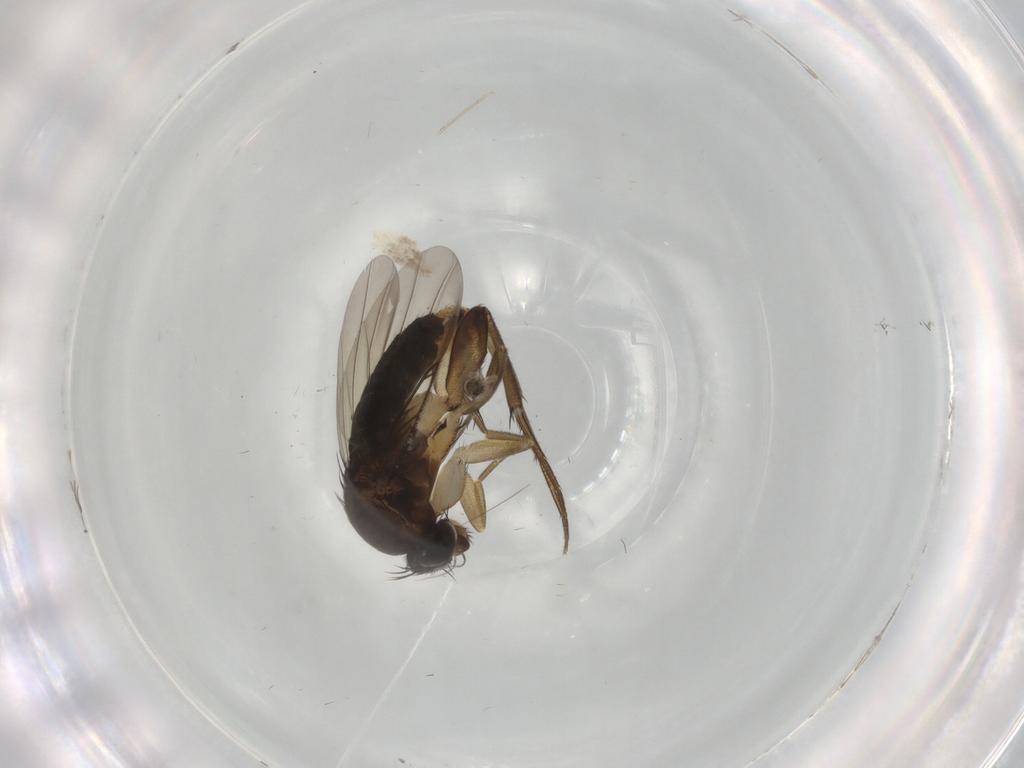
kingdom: Animalia
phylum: Arthropoda
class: Insecta
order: Diptera
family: Phoridae
